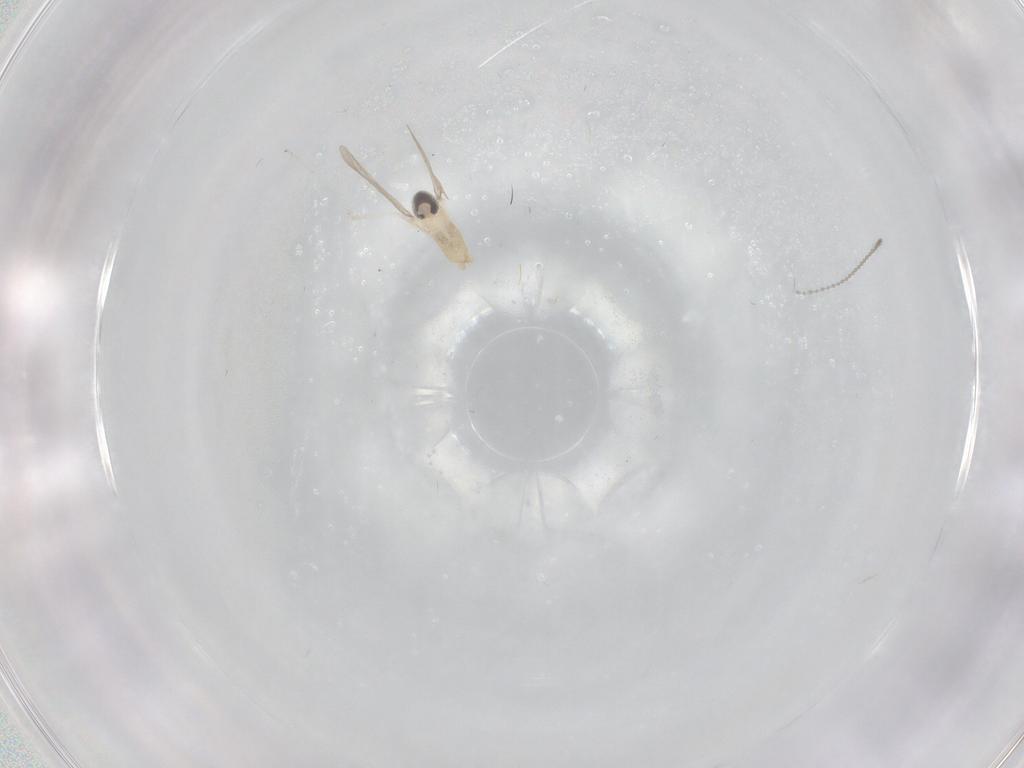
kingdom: Animalia
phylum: Arthropoda
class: Insecta
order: Diptera
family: Cecidomyiidae
